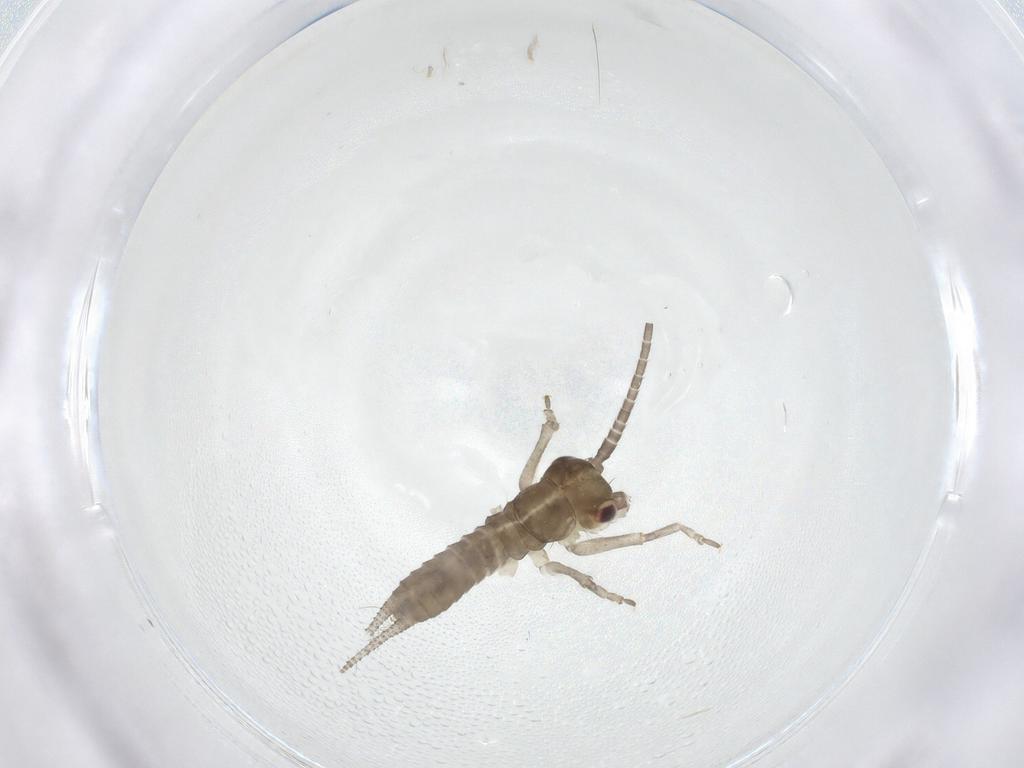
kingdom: Animalia
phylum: Arthropoda
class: Insecta
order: Orthoptera
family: Gryllidae
